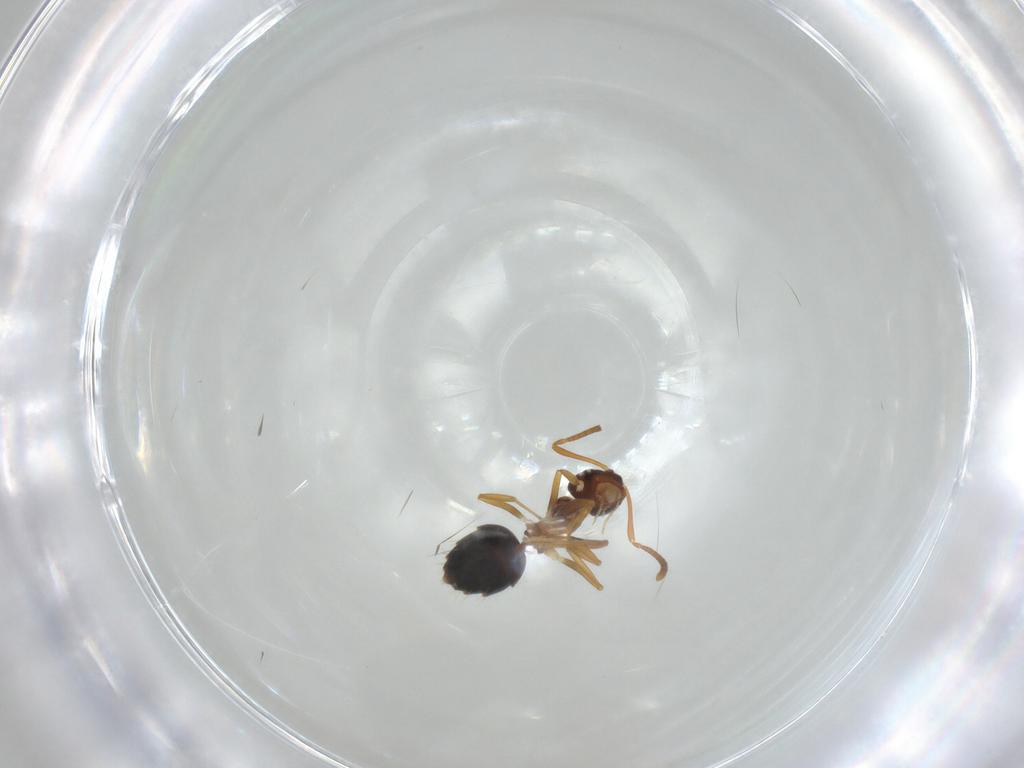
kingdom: Animalia
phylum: Arthropoda
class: Insecta
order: Hymenoptera
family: Formicidae
